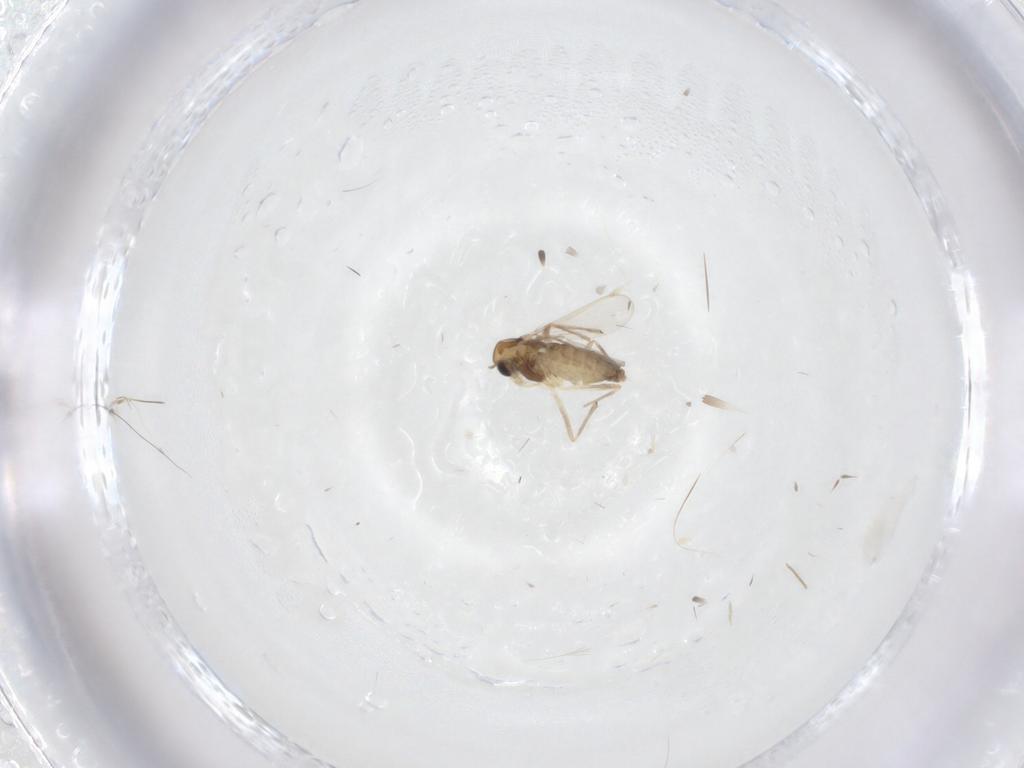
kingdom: Animalia
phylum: Arthropoda
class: Insecta
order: Diptera
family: Chironomidae
